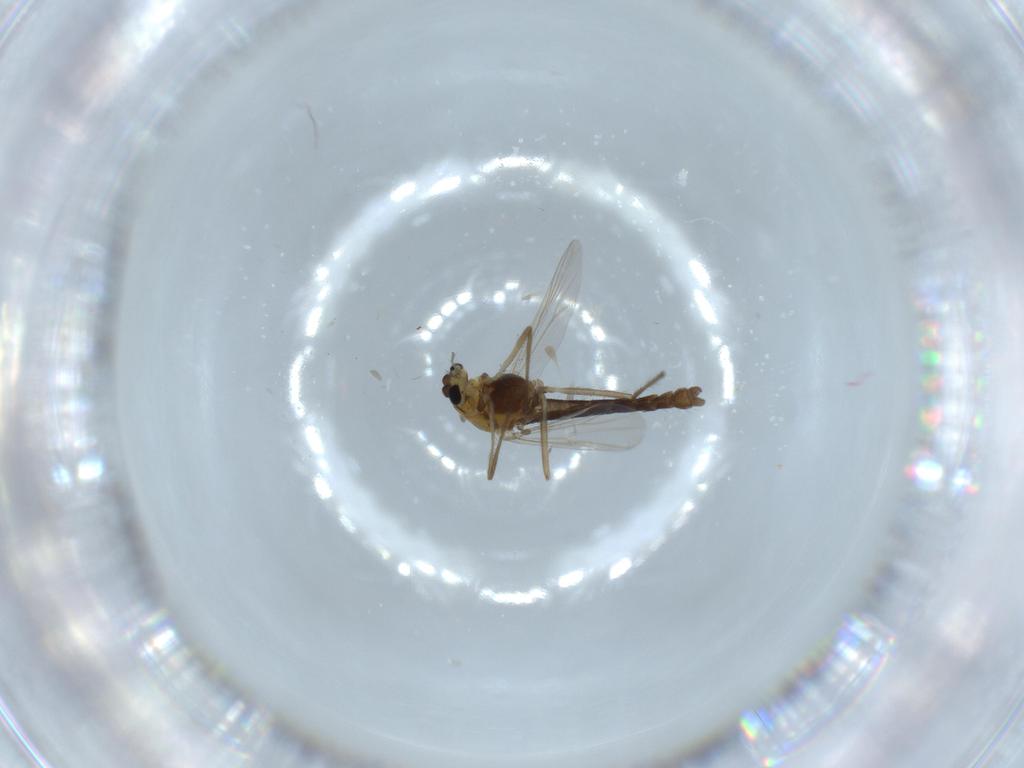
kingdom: Animalia
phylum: Arthropoda
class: Insecta
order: Diptera
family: Chironomidae
